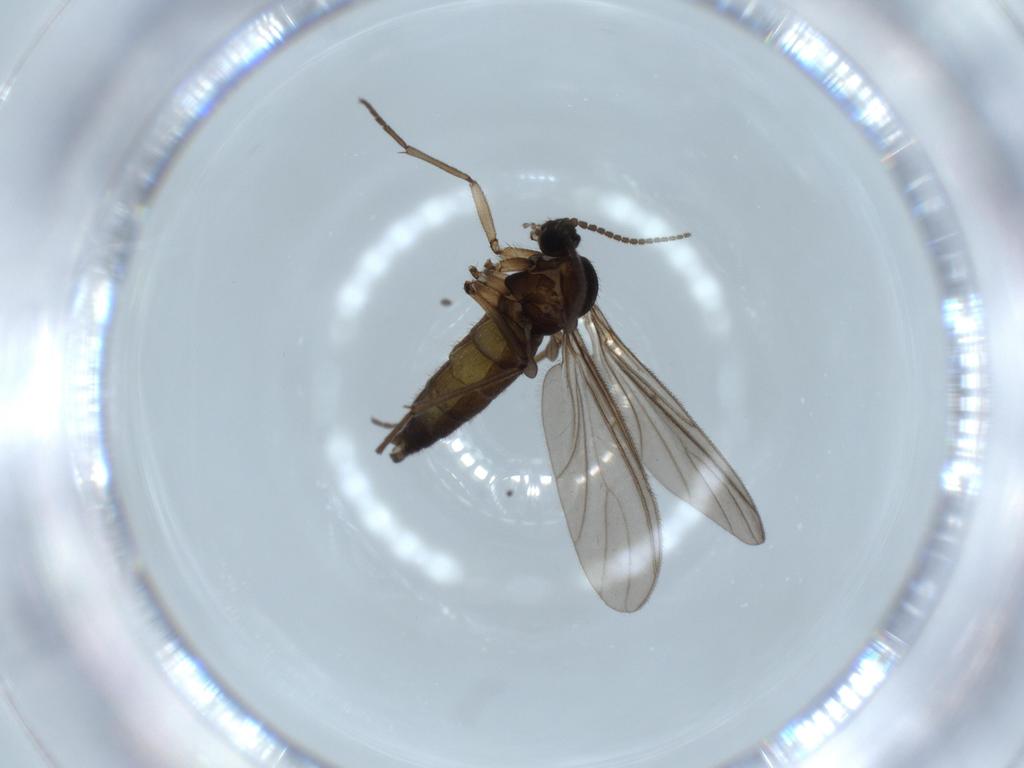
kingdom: Animalia
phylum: Arthropoda
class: Insecta
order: Diptera
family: Sciaridae
